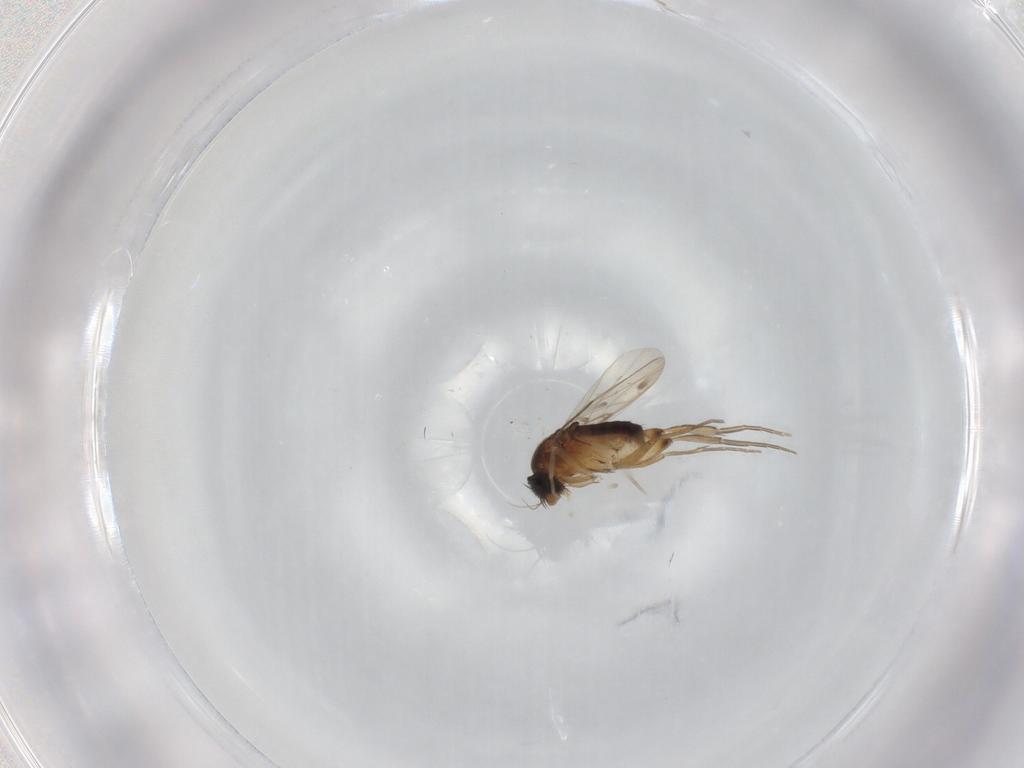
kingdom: Animalia
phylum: Arthropoda
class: Insecta
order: Diptera
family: Phoridae
